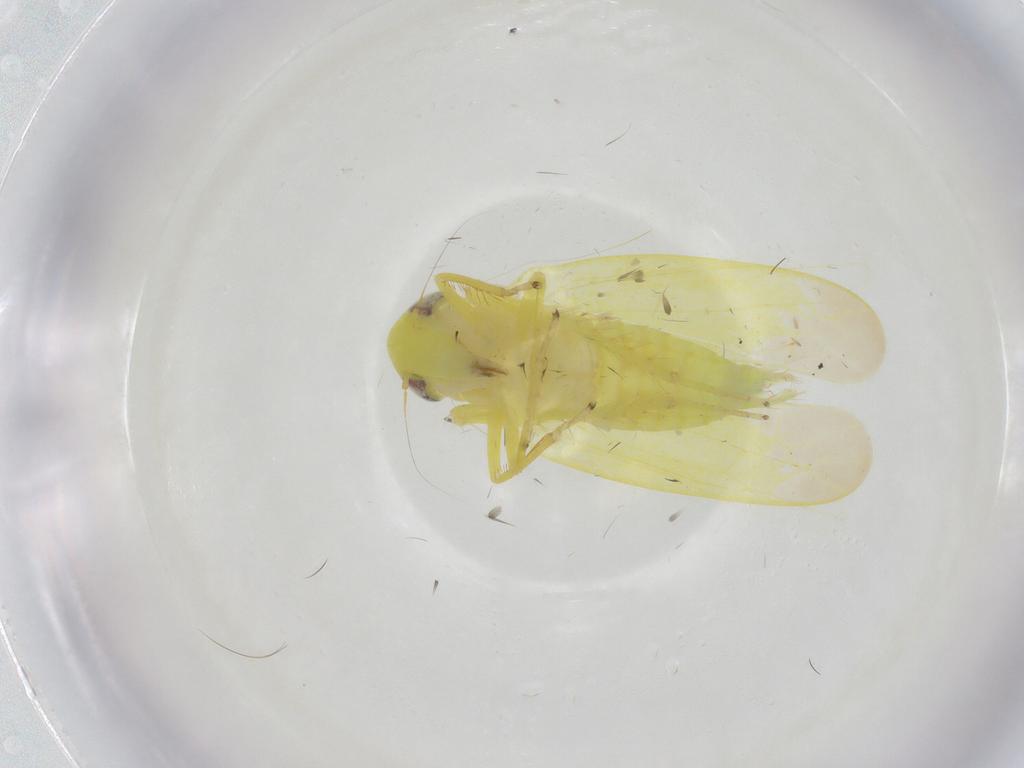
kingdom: Animalia
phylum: Arthropoda
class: Insecta
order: Hemiptera
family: Cicadellidae
